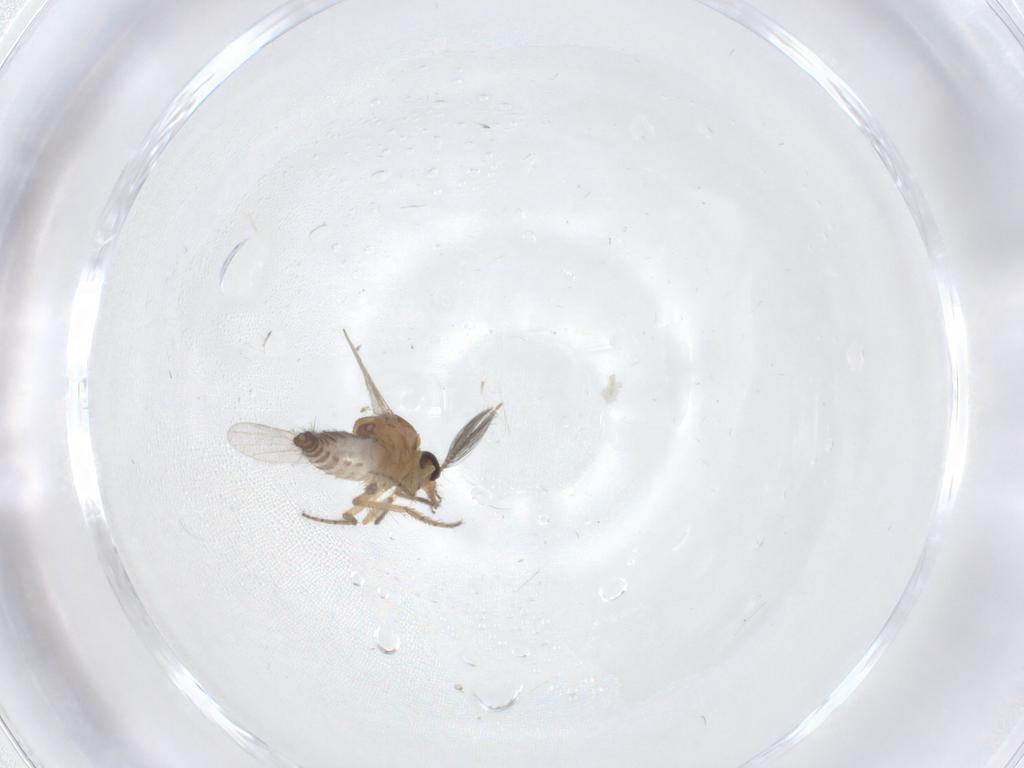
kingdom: Animalia
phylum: Arthropoda
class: Insecta
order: Diptera
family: Ceratopogonidae
